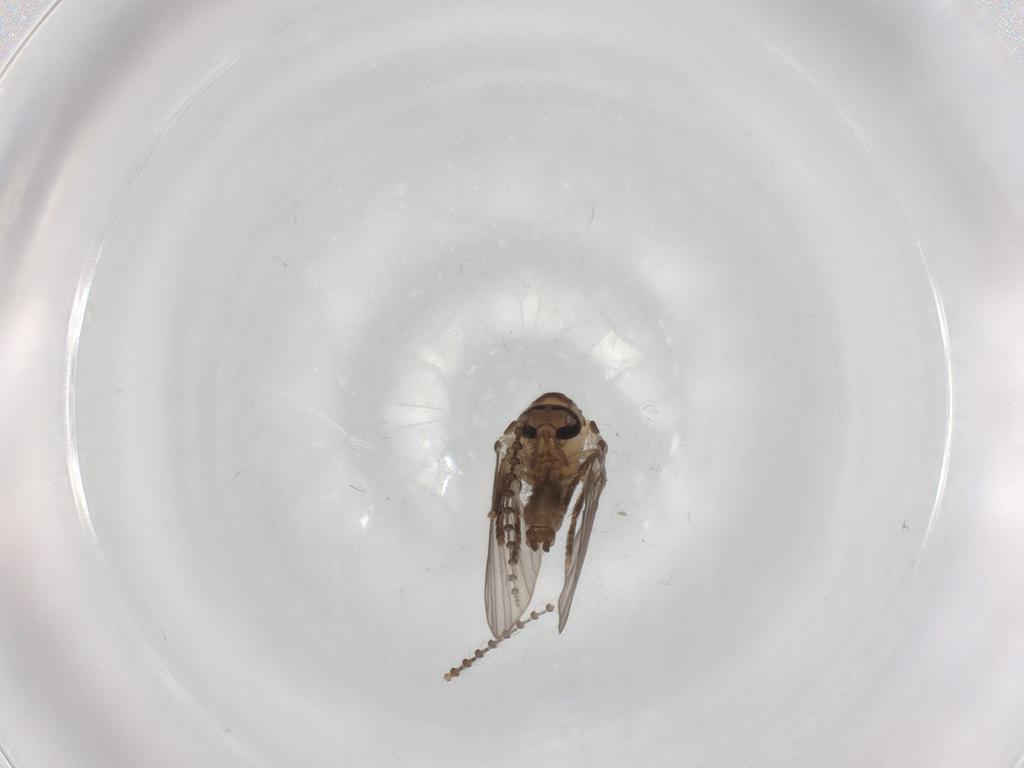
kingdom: Animalia
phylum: Arthropoda
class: Insecta
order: Diptera
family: Psychodidae
